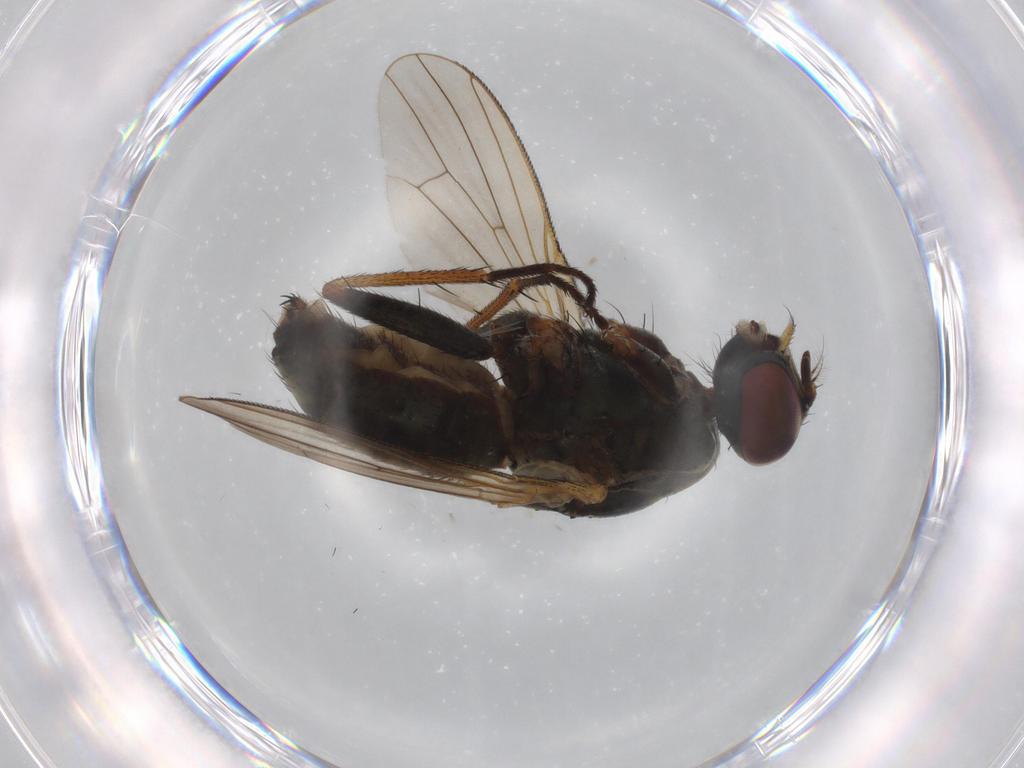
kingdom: Animalia
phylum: Arthropoda
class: Insecta
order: Diptera
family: Muscidae
